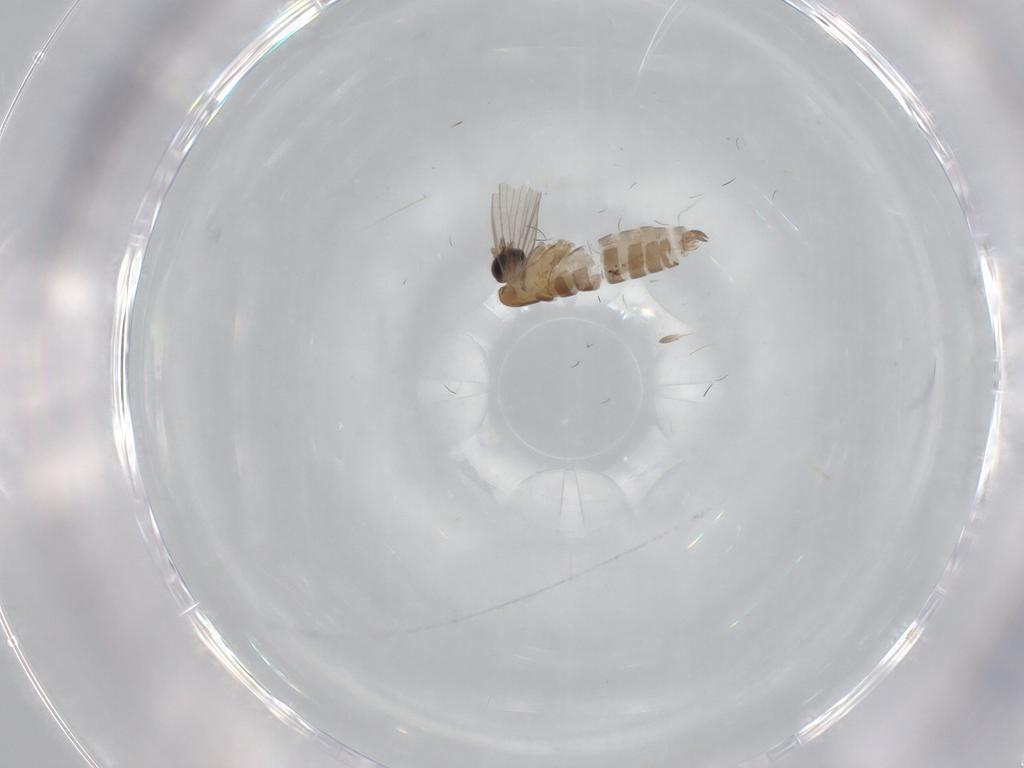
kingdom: Animalia
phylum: Arthropoda
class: Insecta
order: Diptera
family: Psychodidae
